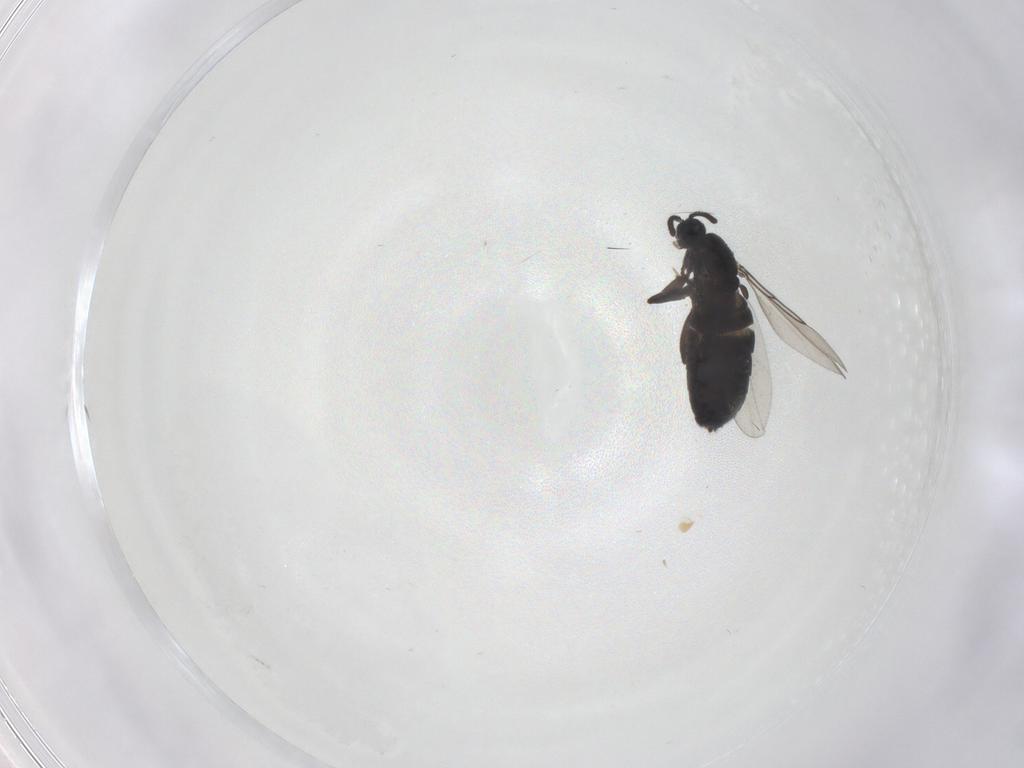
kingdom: Animalia
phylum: Arthropoda
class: Insecta
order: Diptera
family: Scatopsidae
